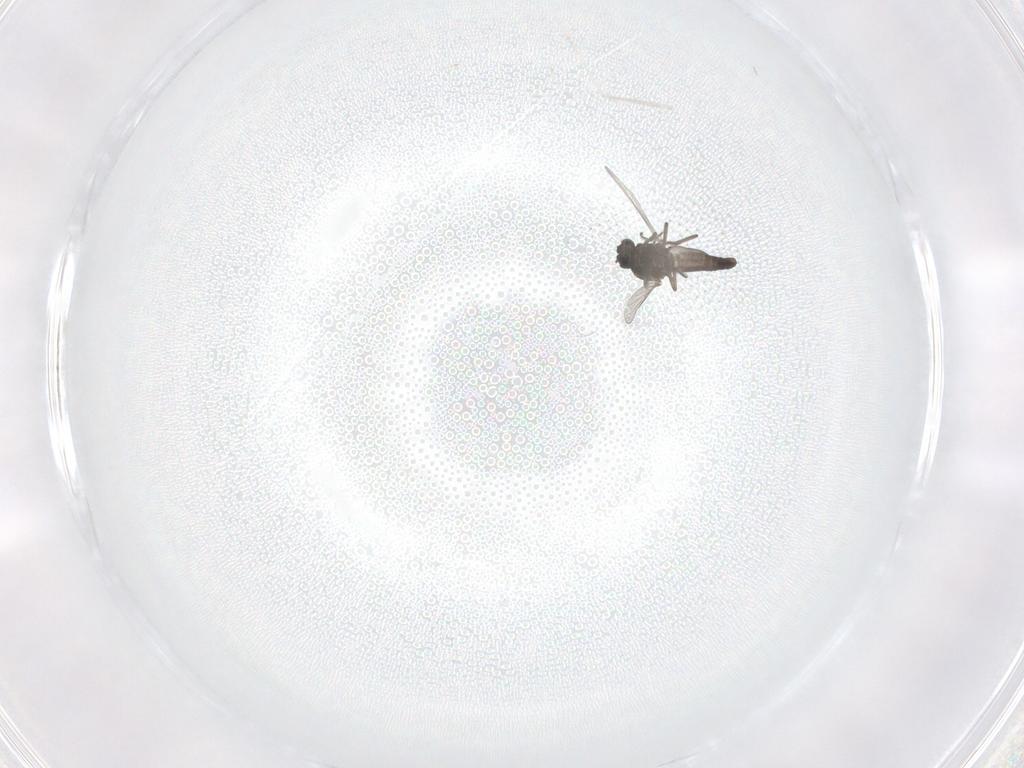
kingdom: Animalia
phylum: Arthropoda
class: Insecta
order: Diptera
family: Ceratopogonidae
